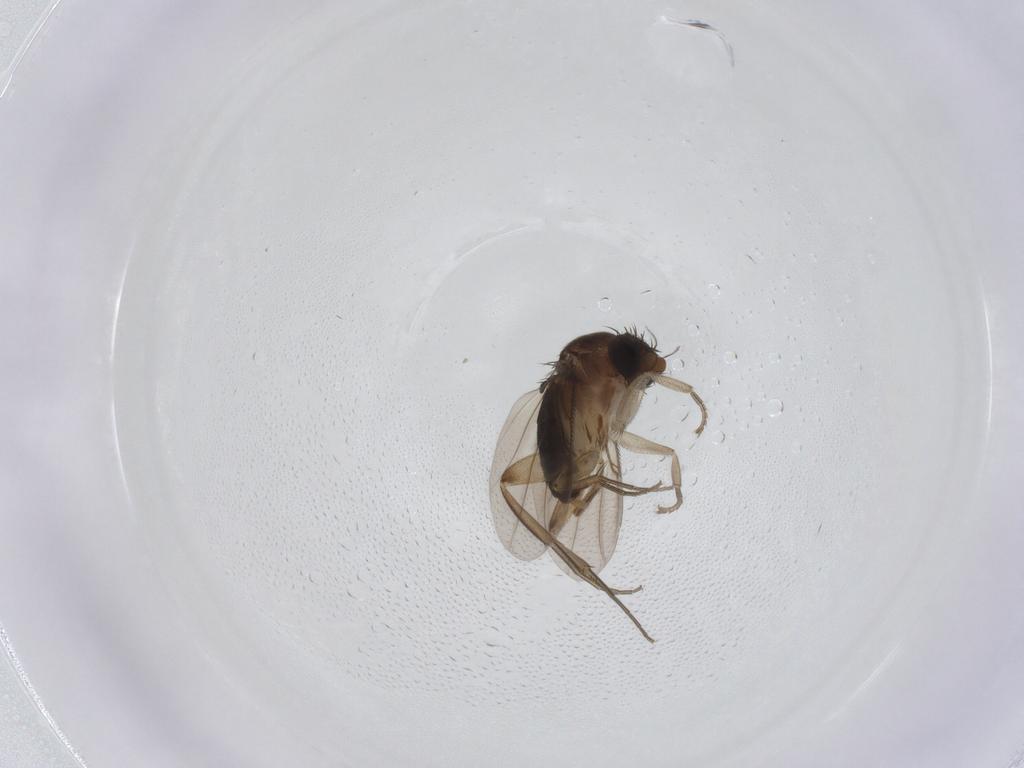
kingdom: Animalia
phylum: Arthropoda
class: Insecta
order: Diptera
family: Phoridae
